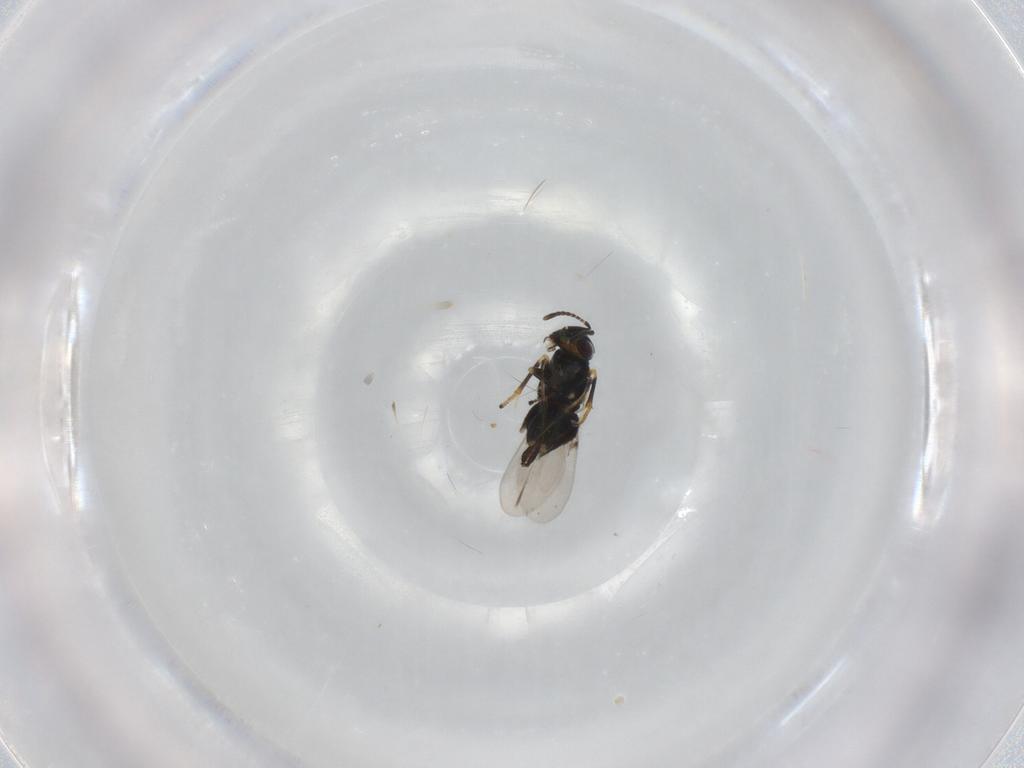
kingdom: Animalia
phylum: Arthropoda
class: Insecta
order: Hymenoptera
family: Encyrtidae
